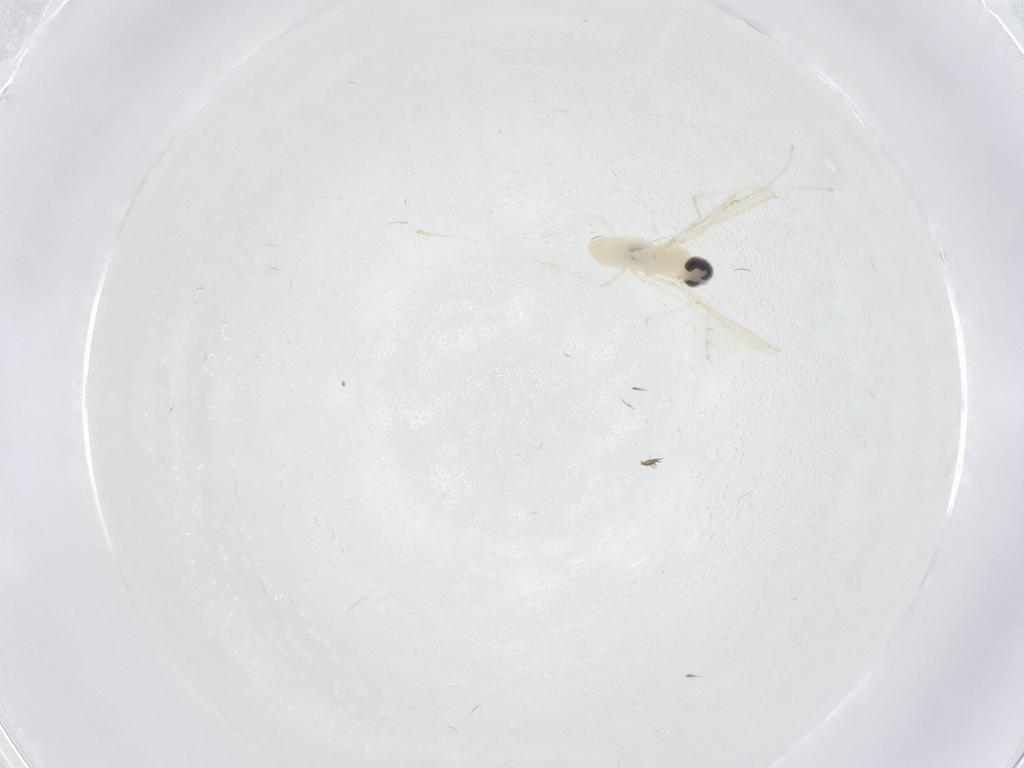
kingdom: Animalia
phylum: Arthropoda
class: Insecta
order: Diptera
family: Cecidomyiidae
